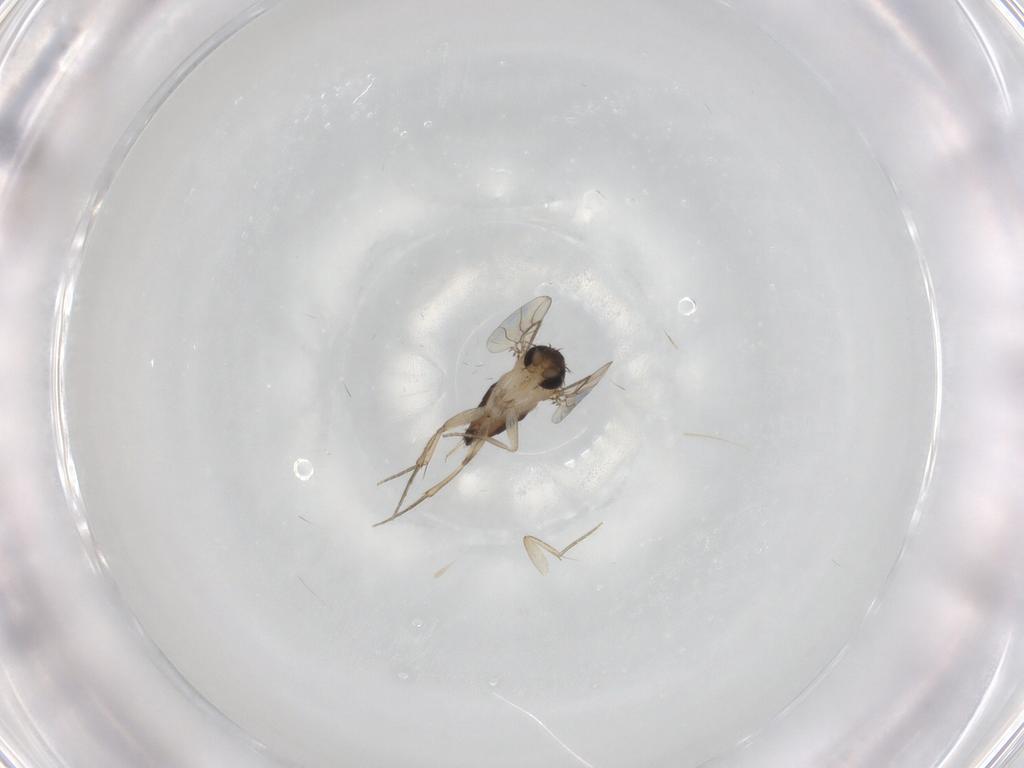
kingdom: Animalia
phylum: Arthropoda
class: Insecta
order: Diptera
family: Phoridae
